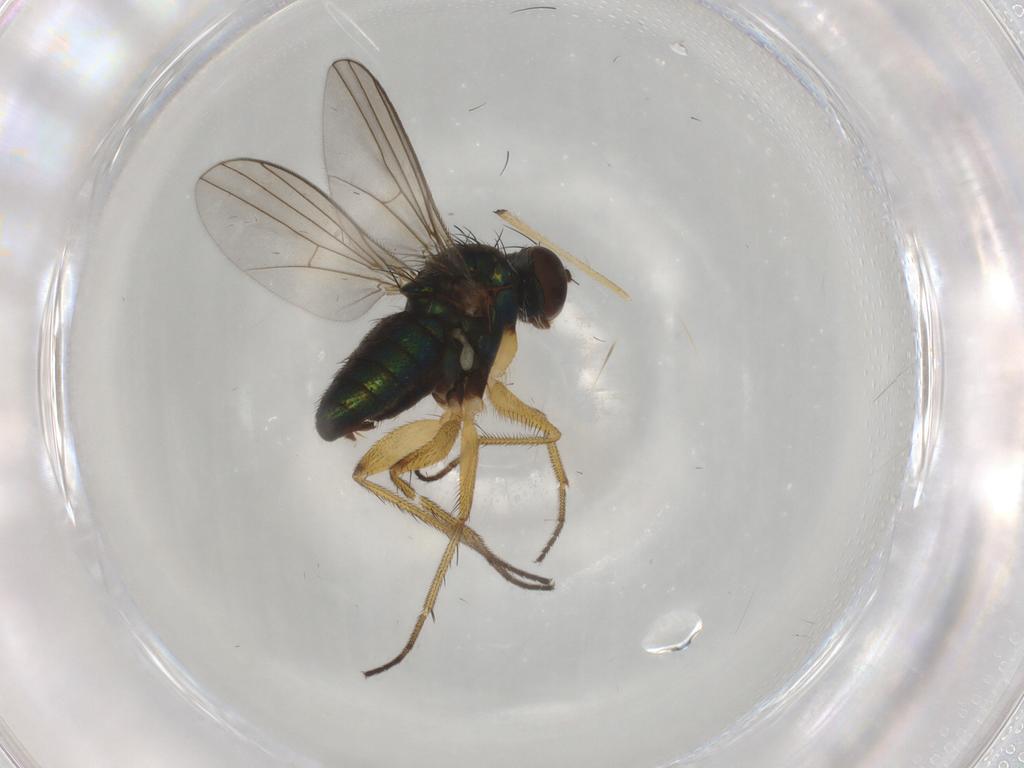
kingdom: Animalia
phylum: Arthropoda
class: Insecta
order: Diptera
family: Dolichopodidae
